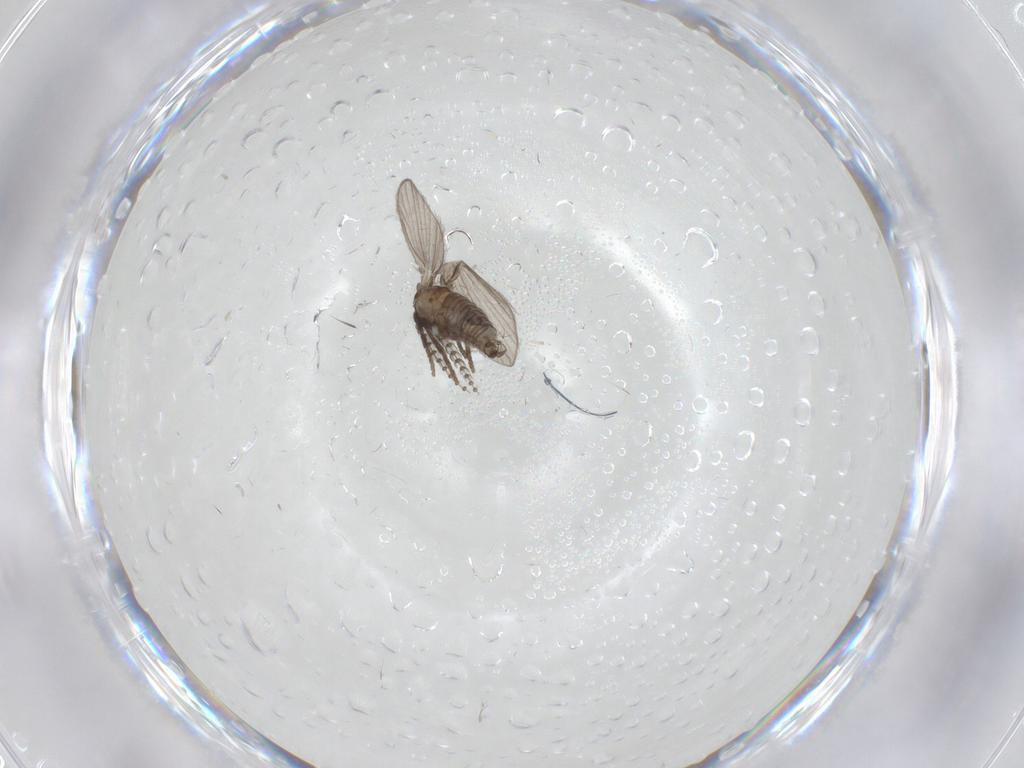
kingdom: Animalia
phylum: Arthropoda
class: Insecta
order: Diptera
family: Psychodidae
